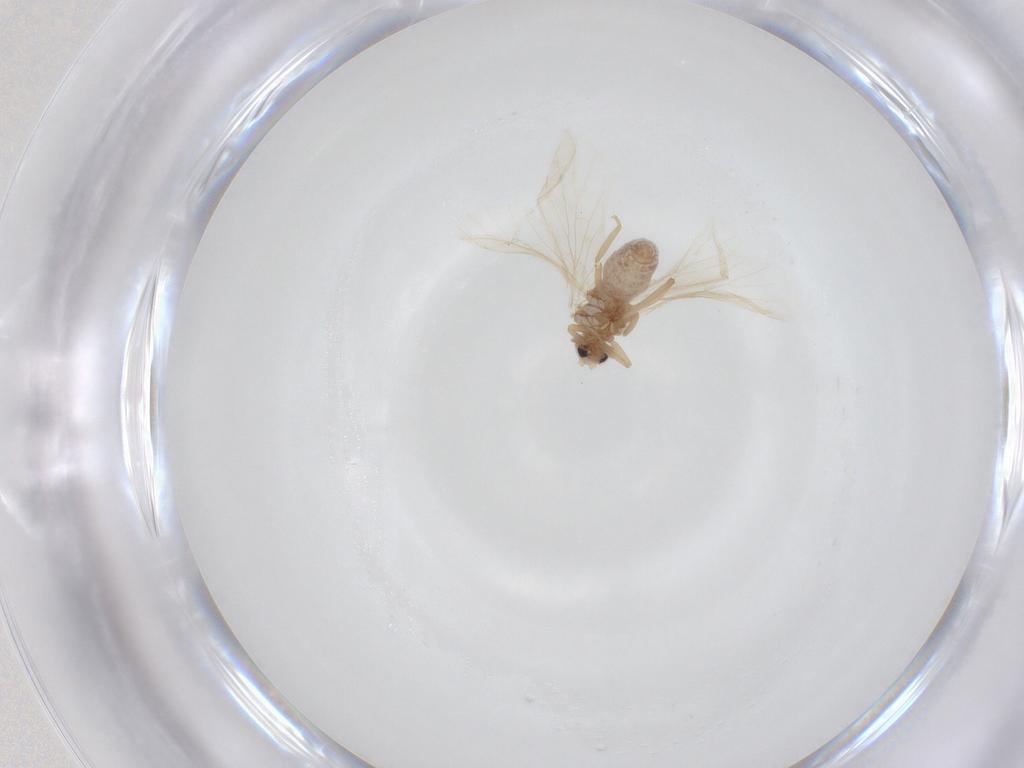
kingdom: Animalia
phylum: Arthropoda
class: Insecta
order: Neuroptera
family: Coniopterygidae
